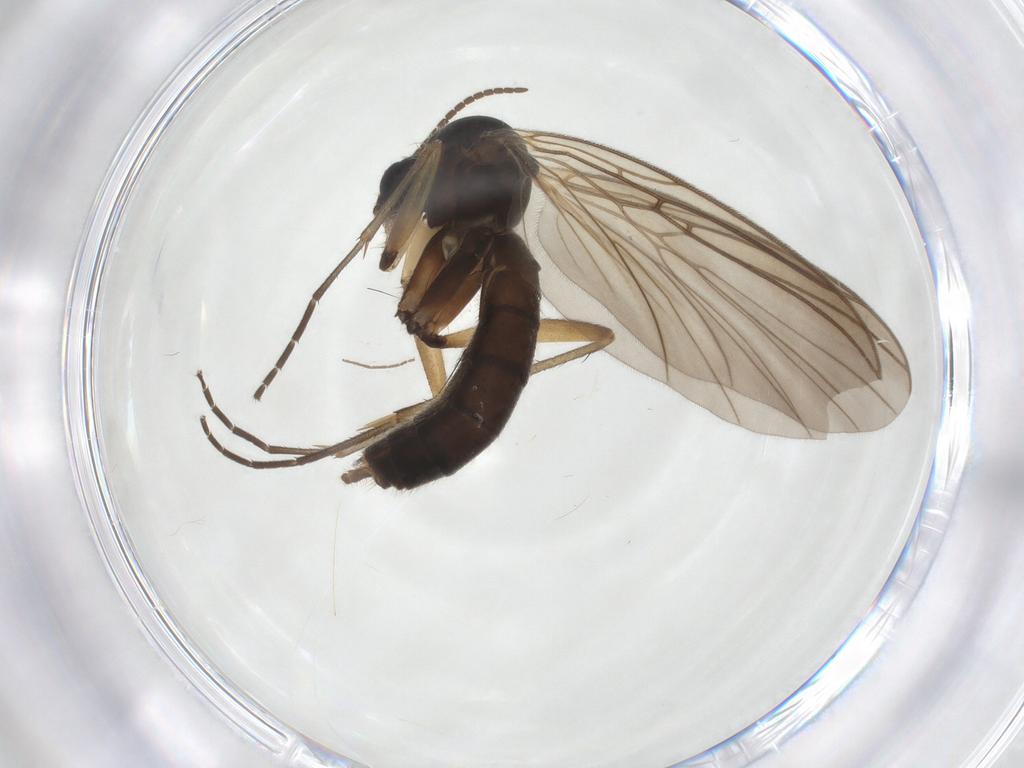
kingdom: Animalia
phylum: Arthropoda
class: Insecta
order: Diptera
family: Mycetophilidae
